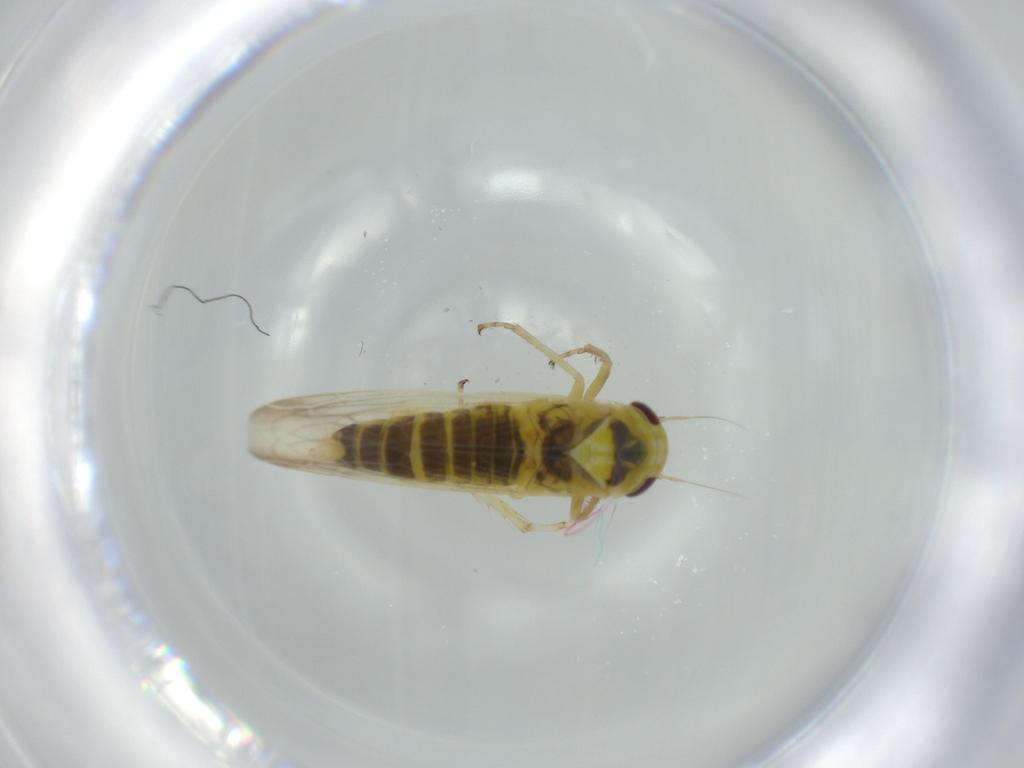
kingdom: Animalia
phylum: Arthropoda
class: Insecta
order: Hemiptera
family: Cicadellidae
